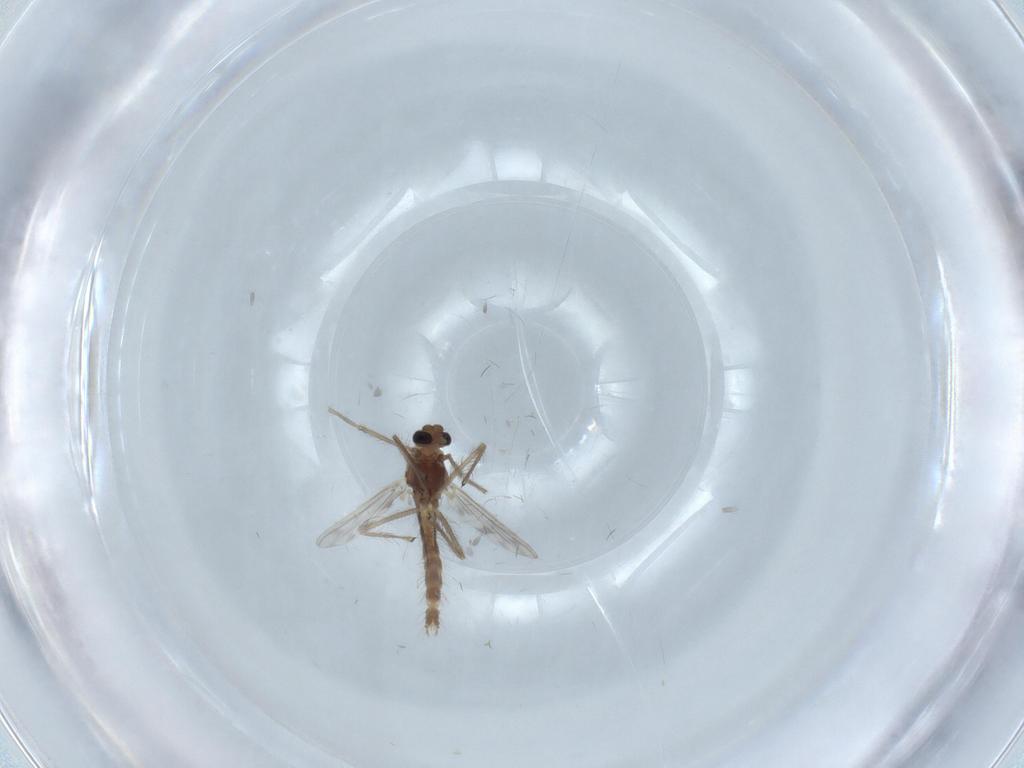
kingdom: Animalia
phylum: Arthropoda
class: Insecta
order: Diptera
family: Chironomidae
